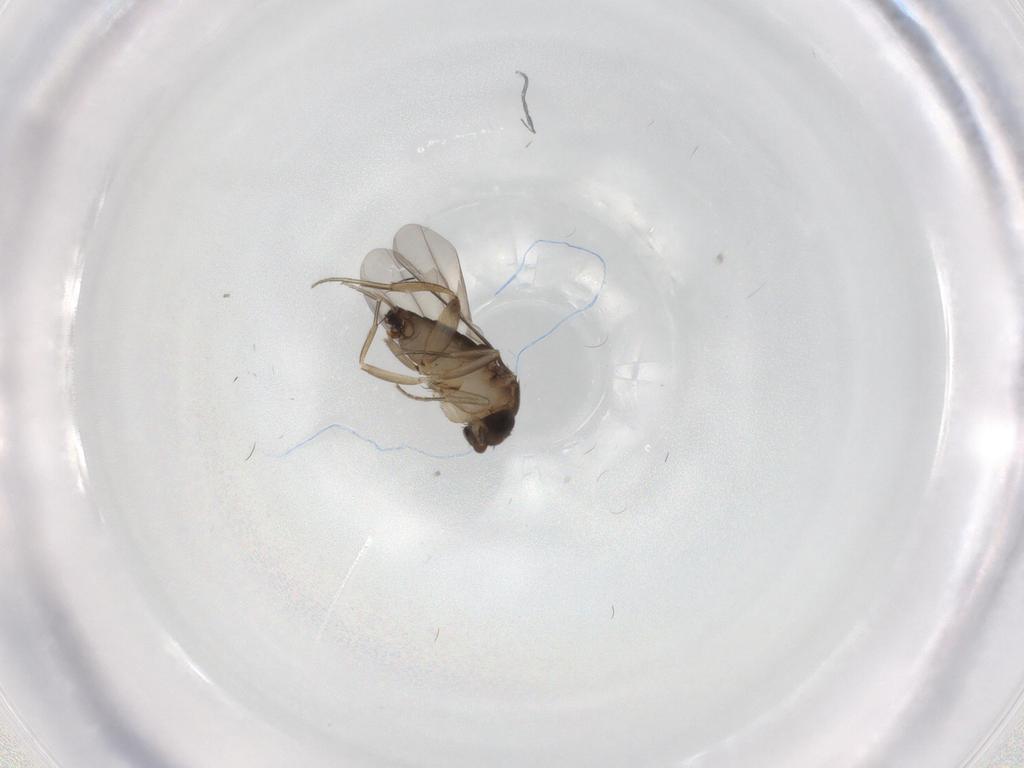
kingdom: Animalia
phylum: Arthropoda
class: Insecta
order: Diptera
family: Phoridae
